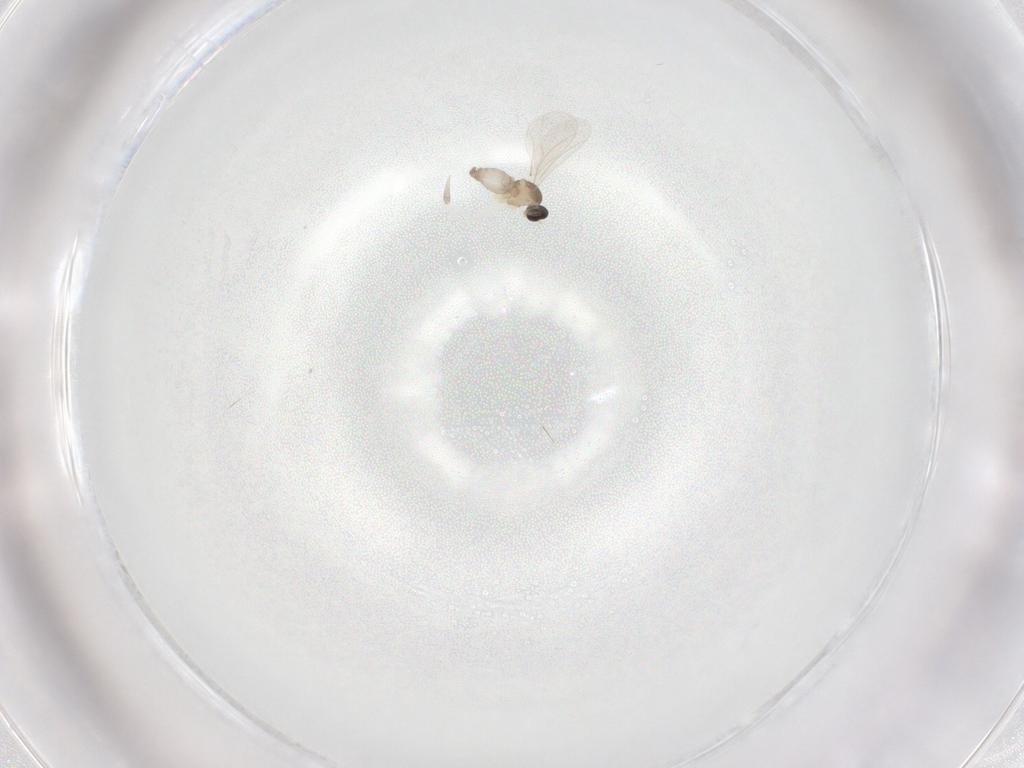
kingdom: Animalia
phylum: Arthropoda
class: Insecta
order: Diptera
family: Cecidomyiidae
